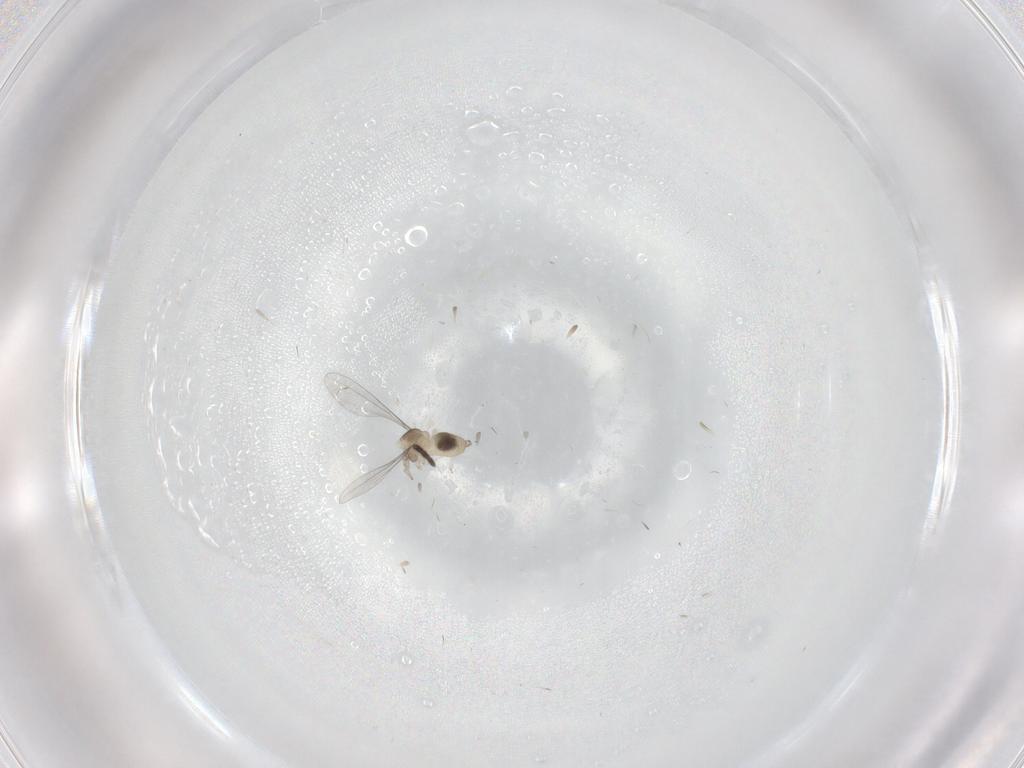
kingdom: Animalia
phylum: Arthropoda
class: Insecta
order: Diptera
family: Cecidomyiidae
